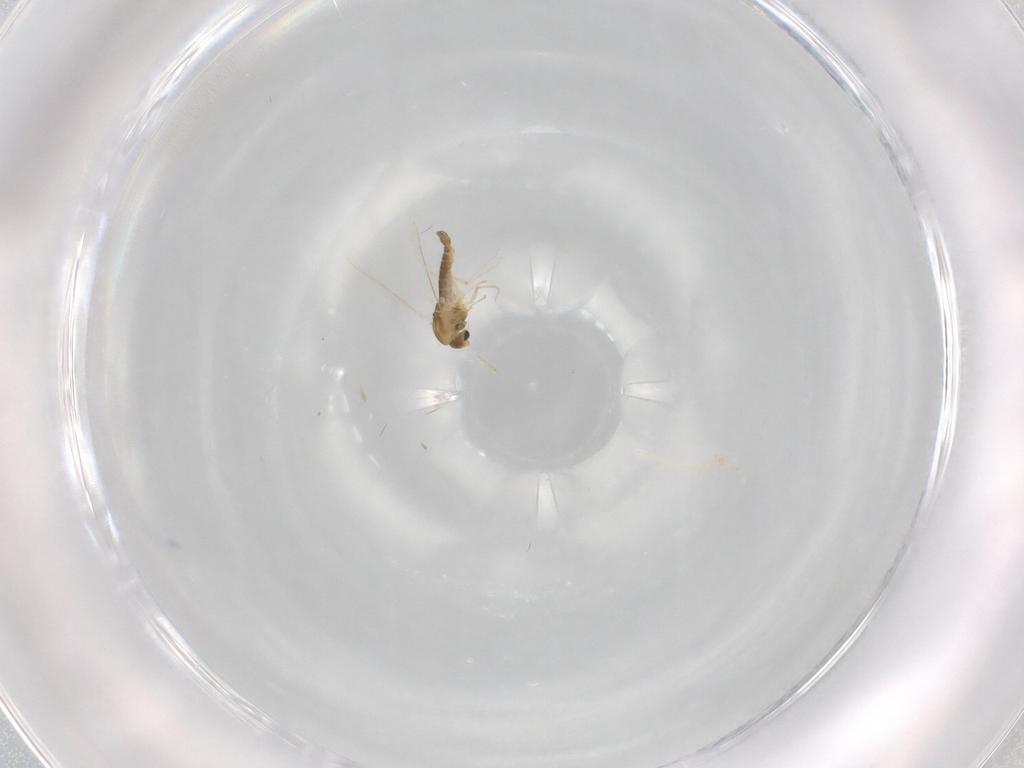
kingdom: Animalia
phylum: Arthropoda
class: Insecta
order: Diptera
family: Chironomidae
